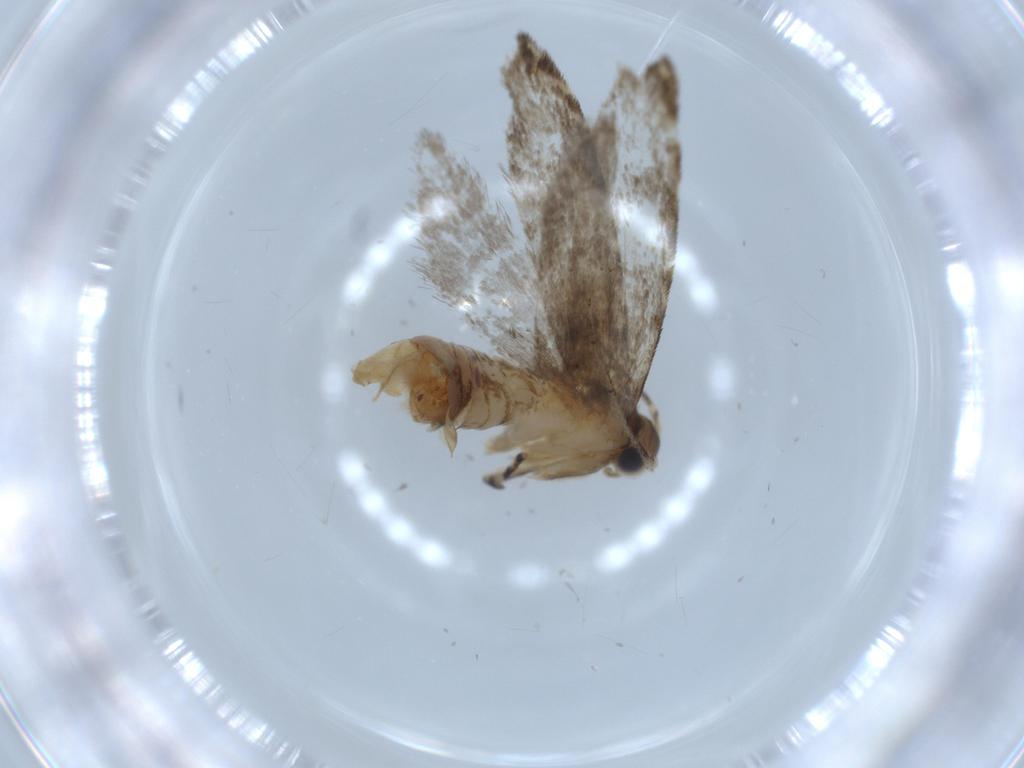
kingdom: Animalia
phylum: Arthropoda
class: Insecta
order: Lepidoptera
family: Tineidae
